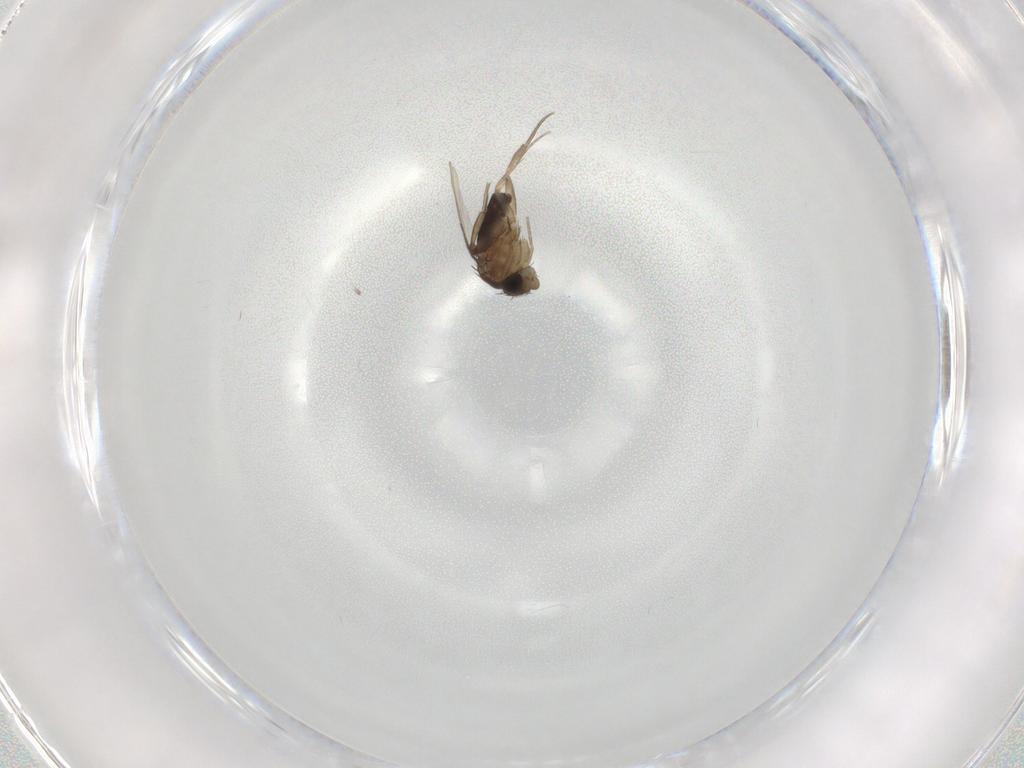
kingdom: Animalia
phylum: Arthropoda
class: Insecta
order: Diptera
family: Phoridae
